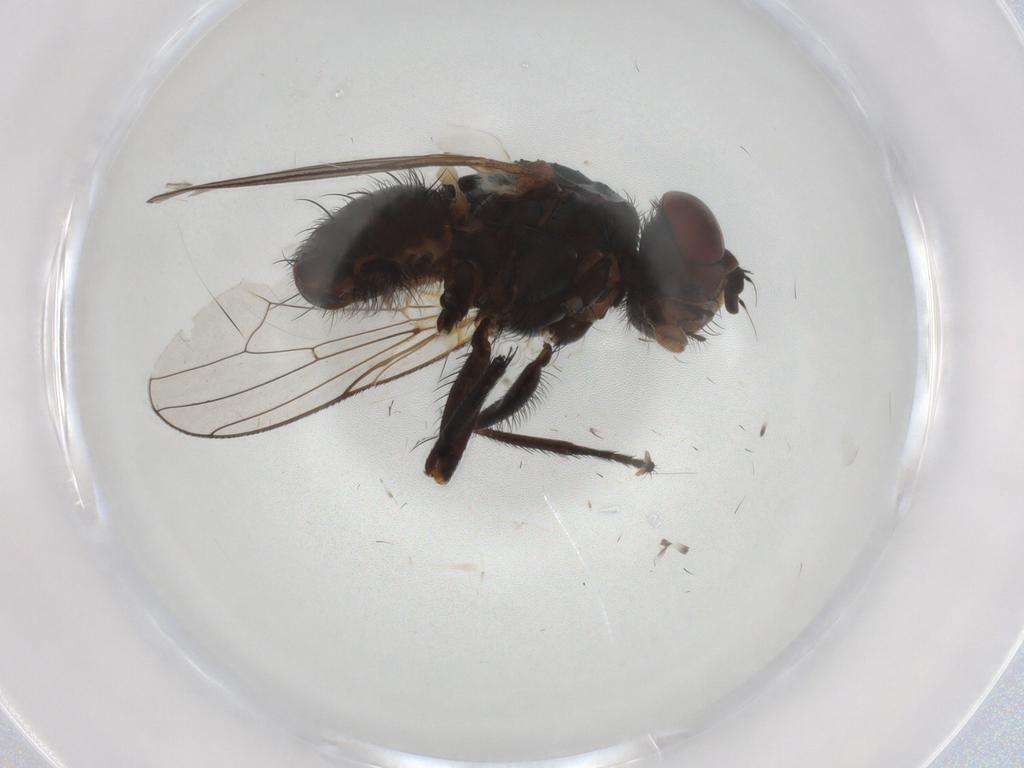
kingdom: Animalia
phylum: Arthropoda
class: Insecta
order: Diptera
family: Anthomyiidae
